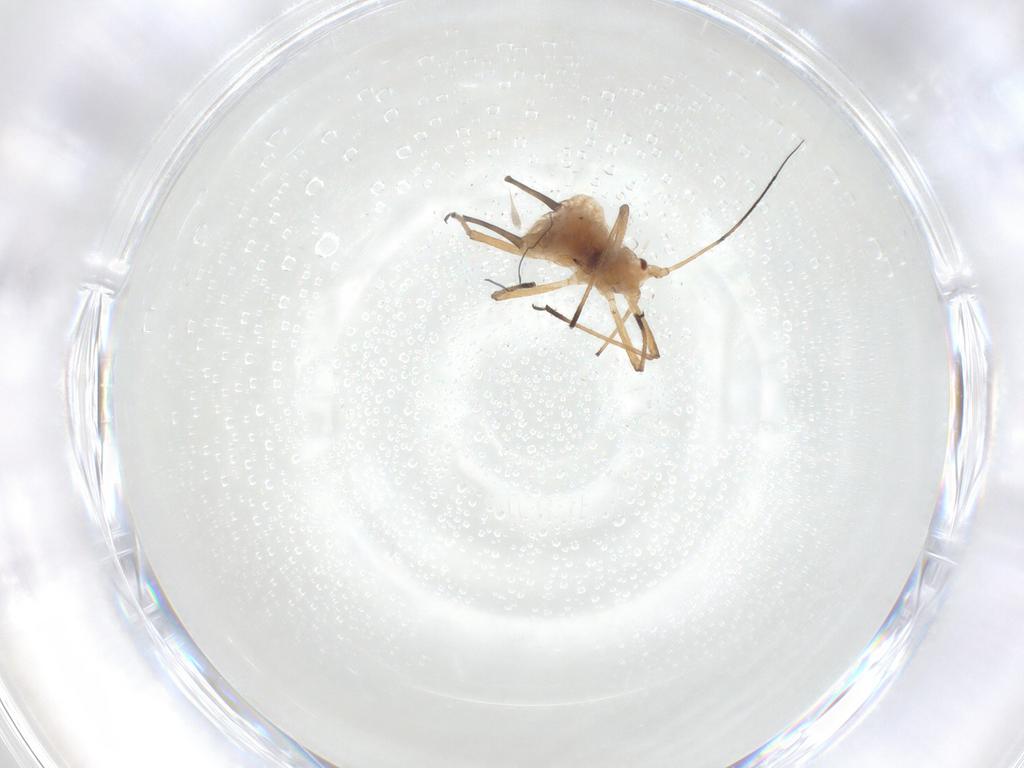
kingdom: Animalia
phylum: Arthropoda
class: Insecta
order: Hemiptera
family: Aphididae
